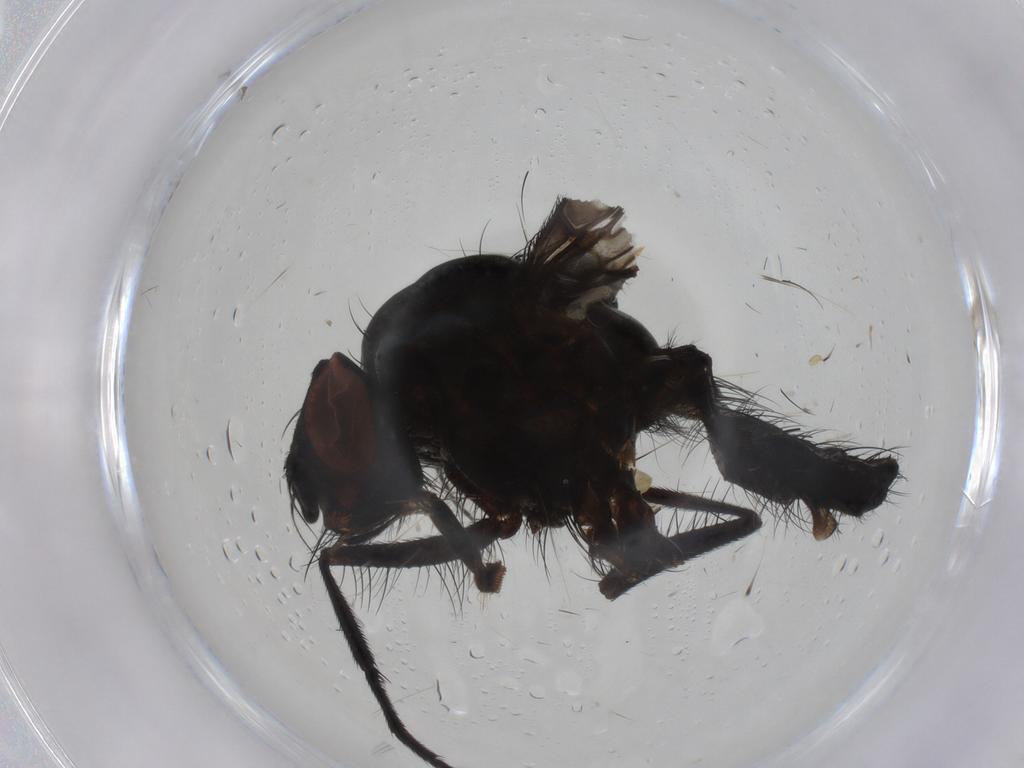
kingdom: Animalia
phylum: Arthropoda
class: Insecta
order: Diptera
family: Anthomyiidae
